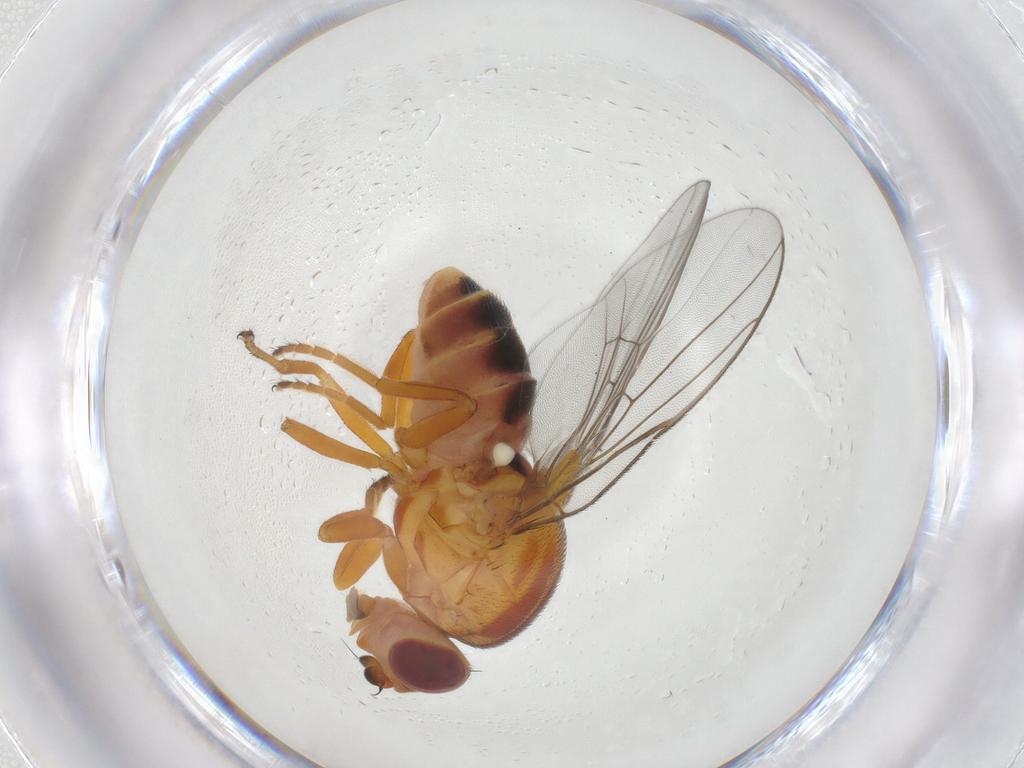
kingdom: Animalia
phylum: Arthropoda
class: Insecta
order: Diptera
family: Chloropidae
